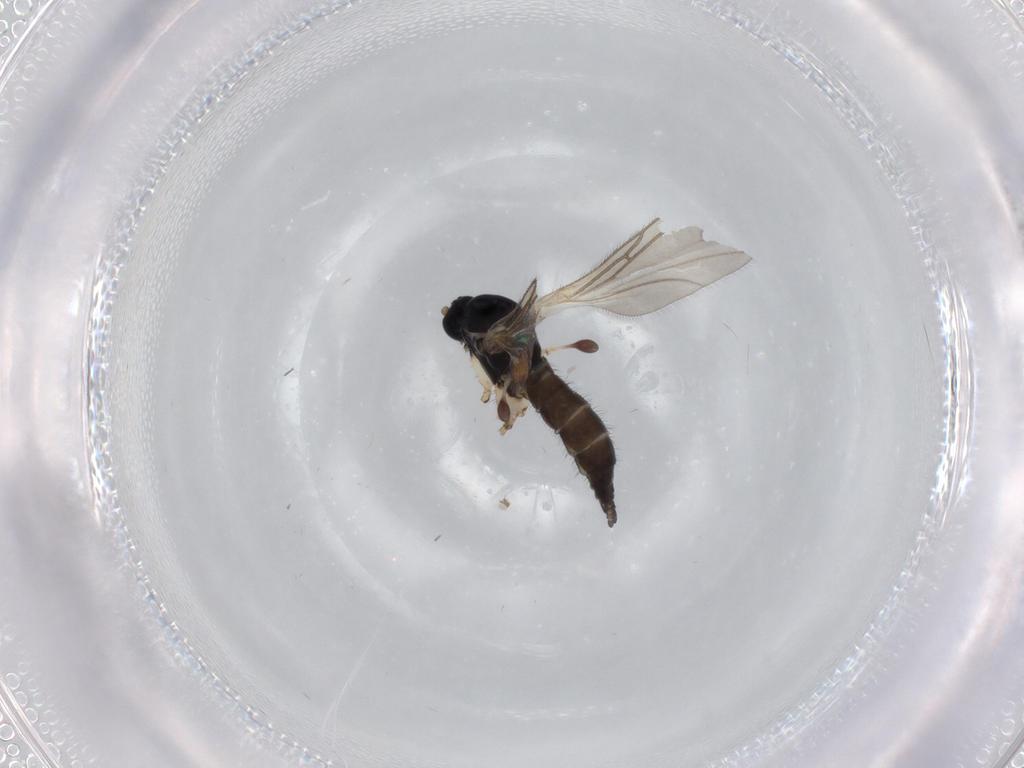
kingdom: Animalia
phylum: Arthropoda
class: Insecta
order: Diptera
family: Sciaridae
